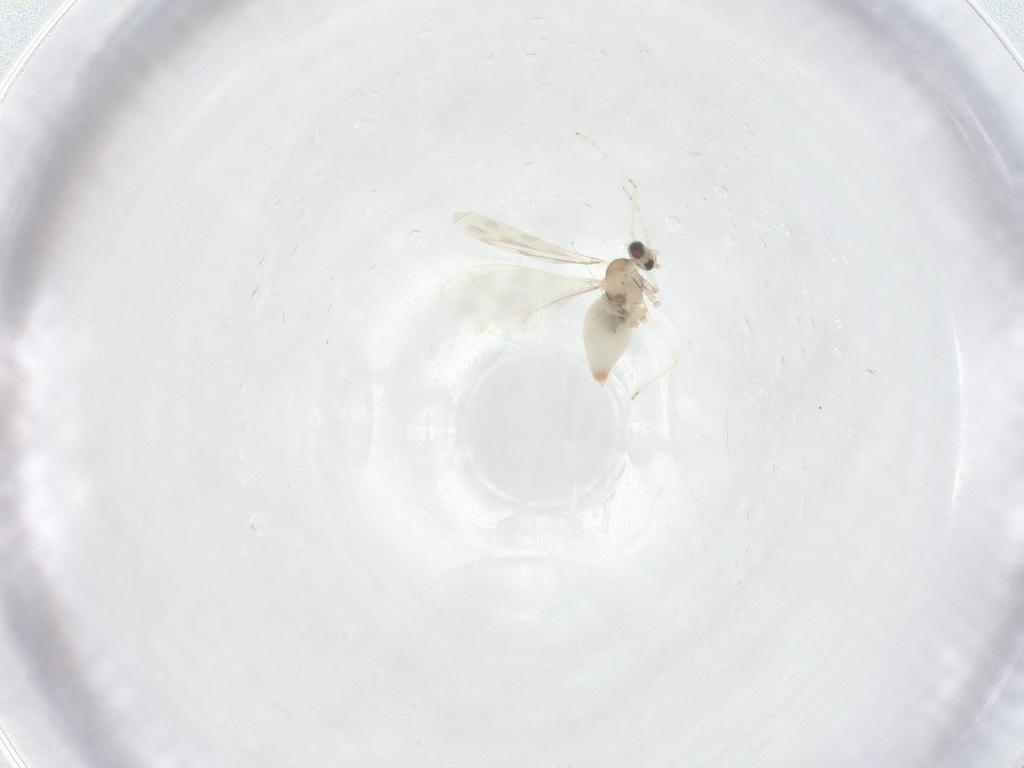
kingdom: Animalia
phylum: Arthropoda
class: Insecta
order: Diptera
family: Cecidomyiidae
